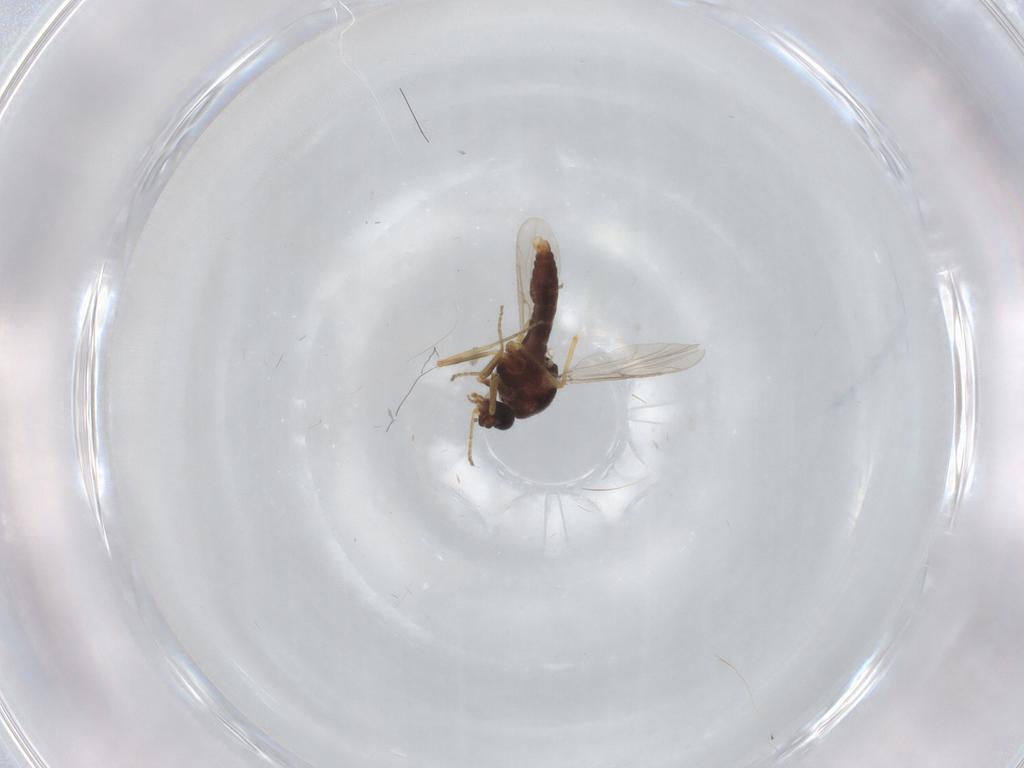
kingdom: Animalia
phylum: Arthropoda
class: Insecta
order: Diptera
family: Ceratopogonidae
